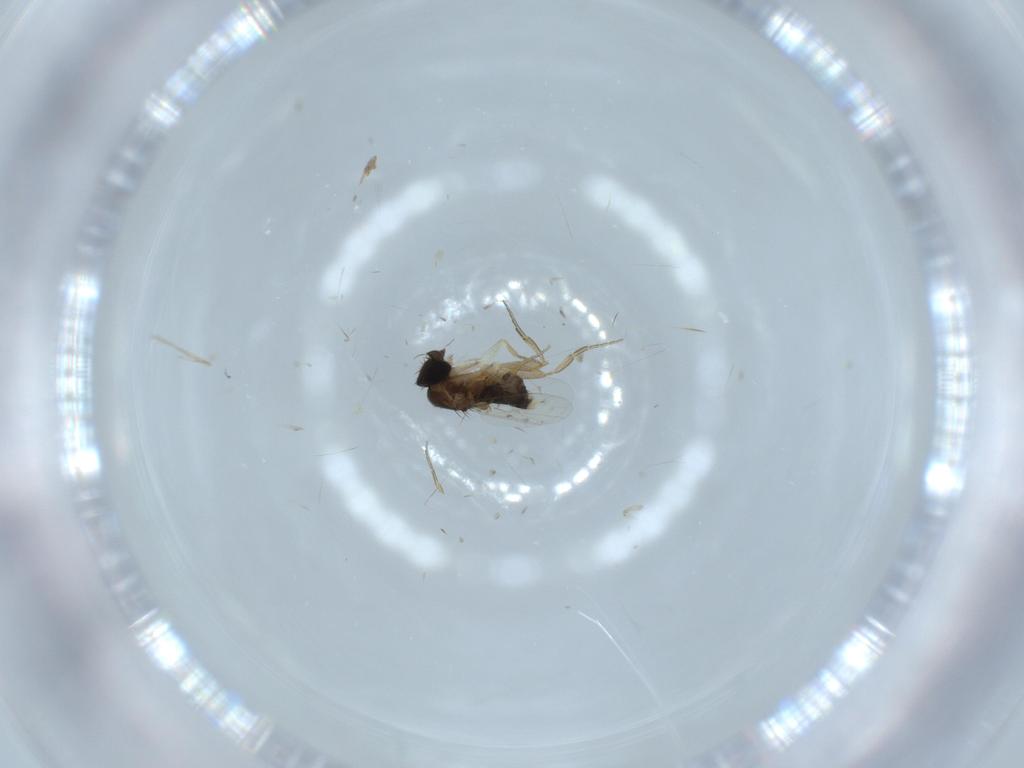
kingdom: Animalia
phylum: Arthropoda
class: Insecta
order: Diptera
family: Phoridae
